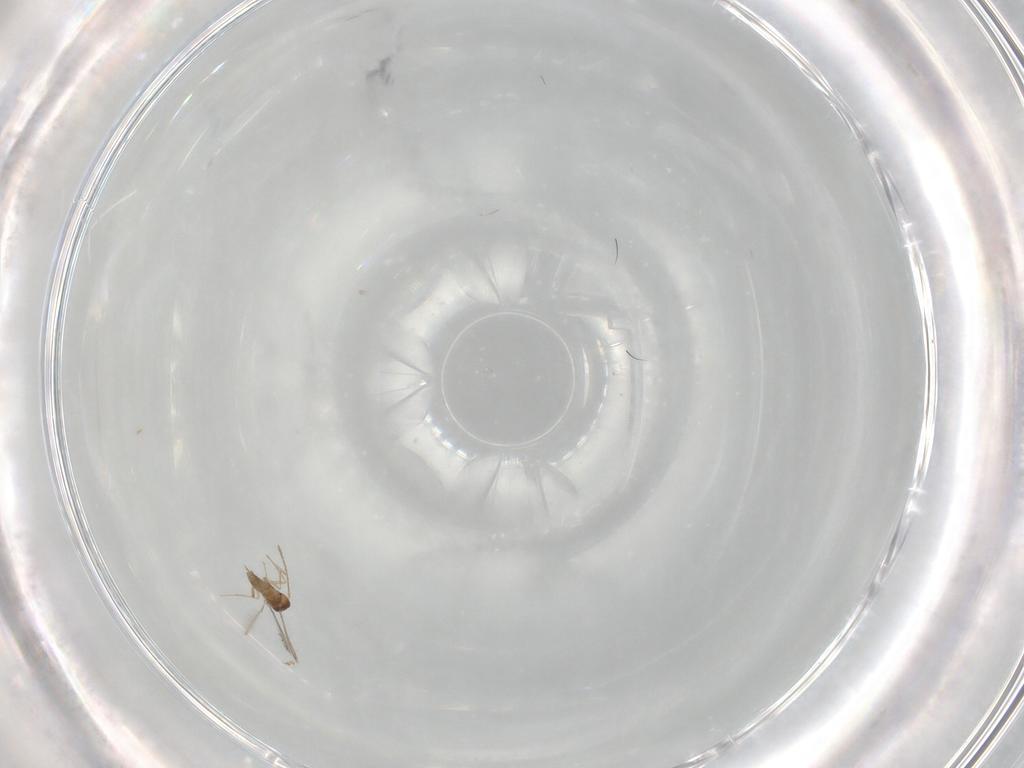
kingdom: Animalia
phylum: Arthropoda
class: Insecta
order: Hymenoptera
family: Mymaridae
